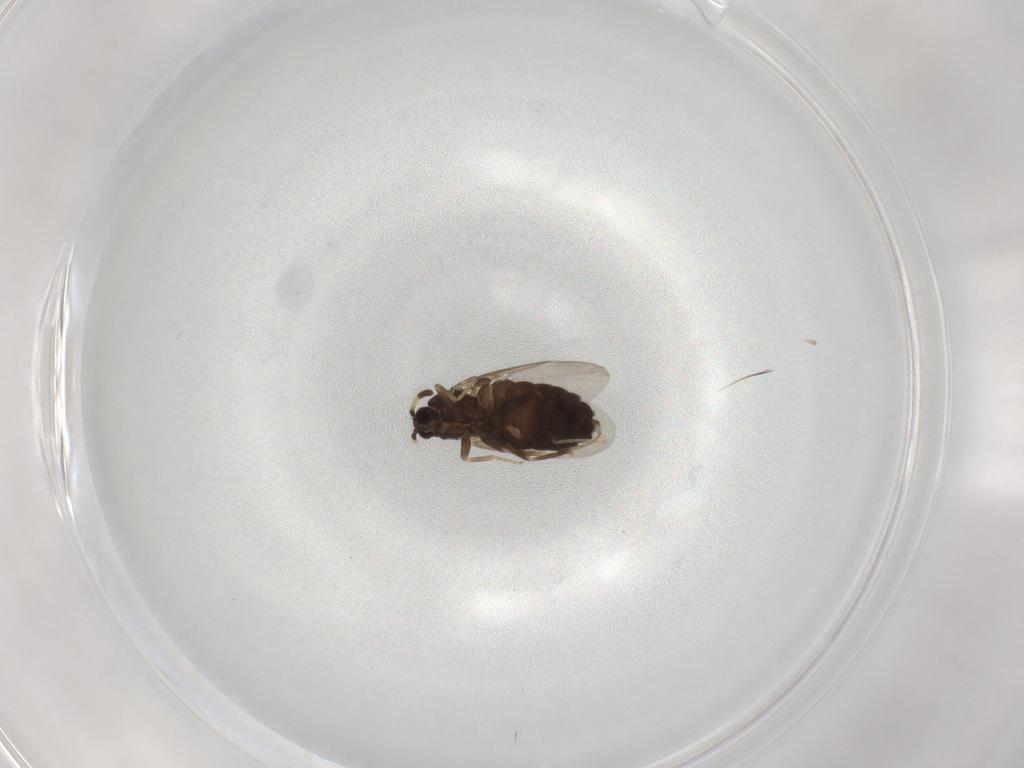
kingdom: Animalia
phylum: Arthropoda
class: Insecta
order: Diptera
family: Scatopsidae
